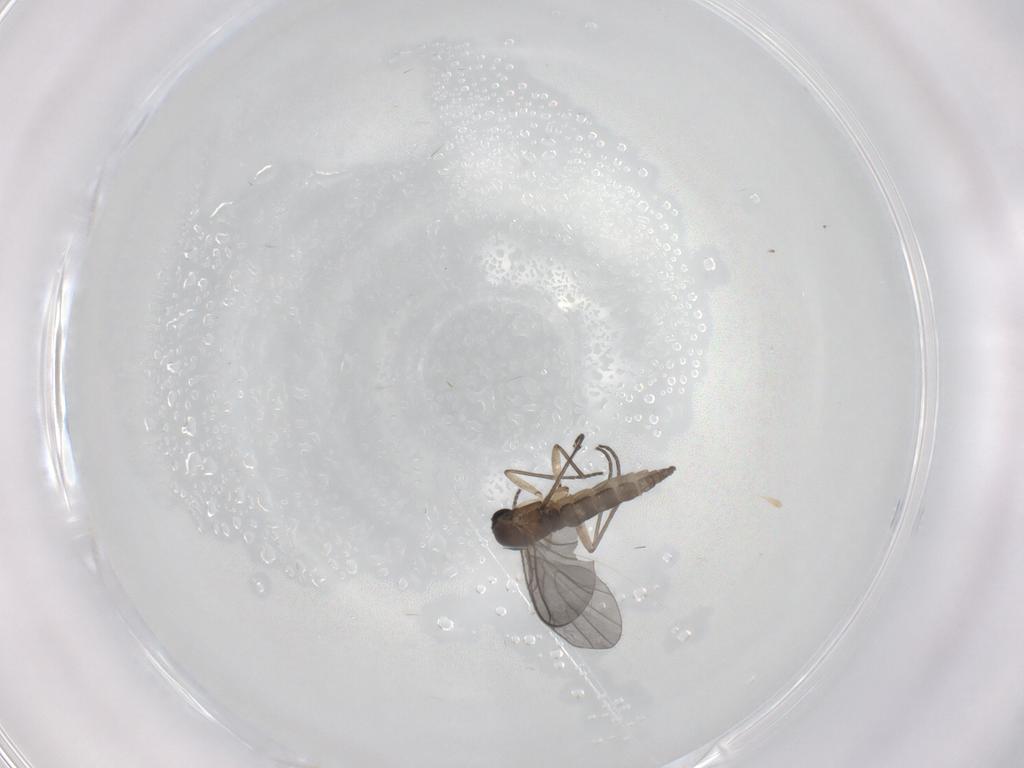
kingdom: Animalia
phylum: Arthropoda
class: Insecta
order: Diptera
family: Sciaridae
